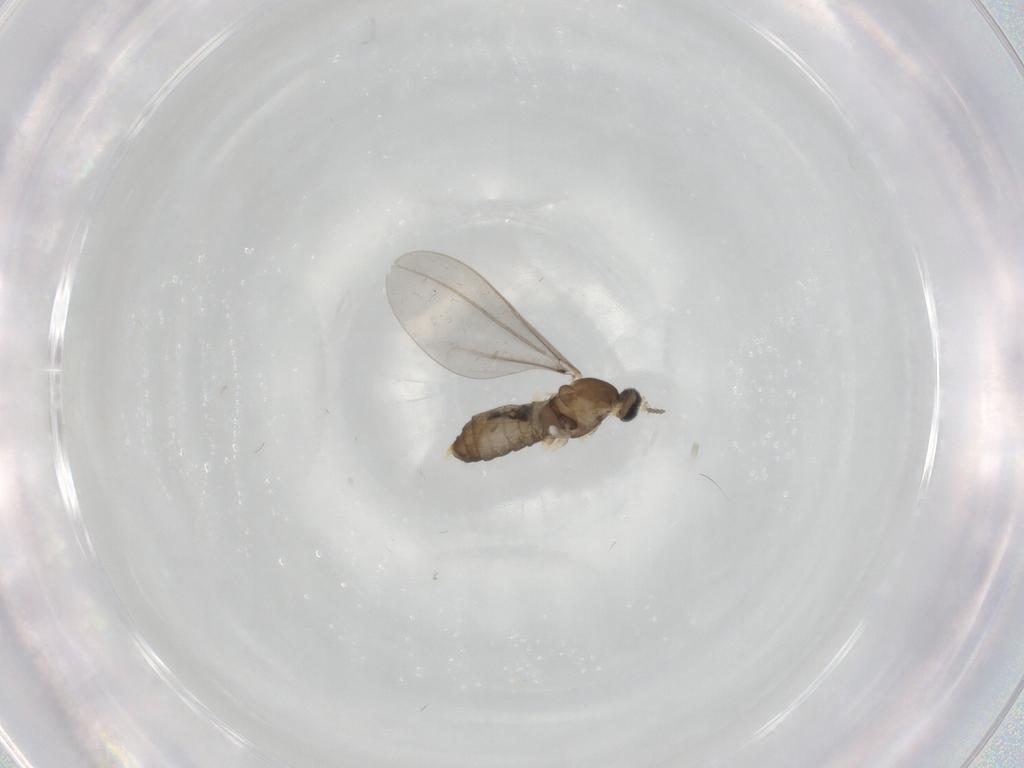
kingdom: Animalia
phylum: Arthropoda
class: Insecta
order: Diptera
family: Cecidomyiidae
